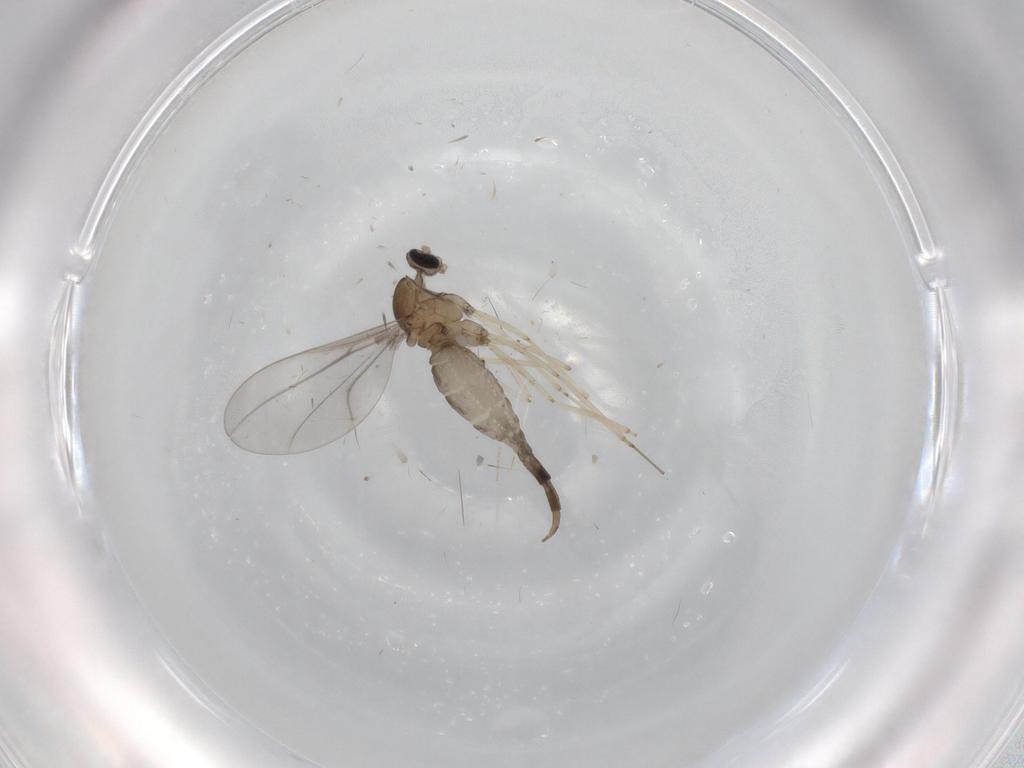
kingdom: Animalia
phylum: Arthropoda
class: Insecta
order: Diptera
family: Cecidomyiidae
